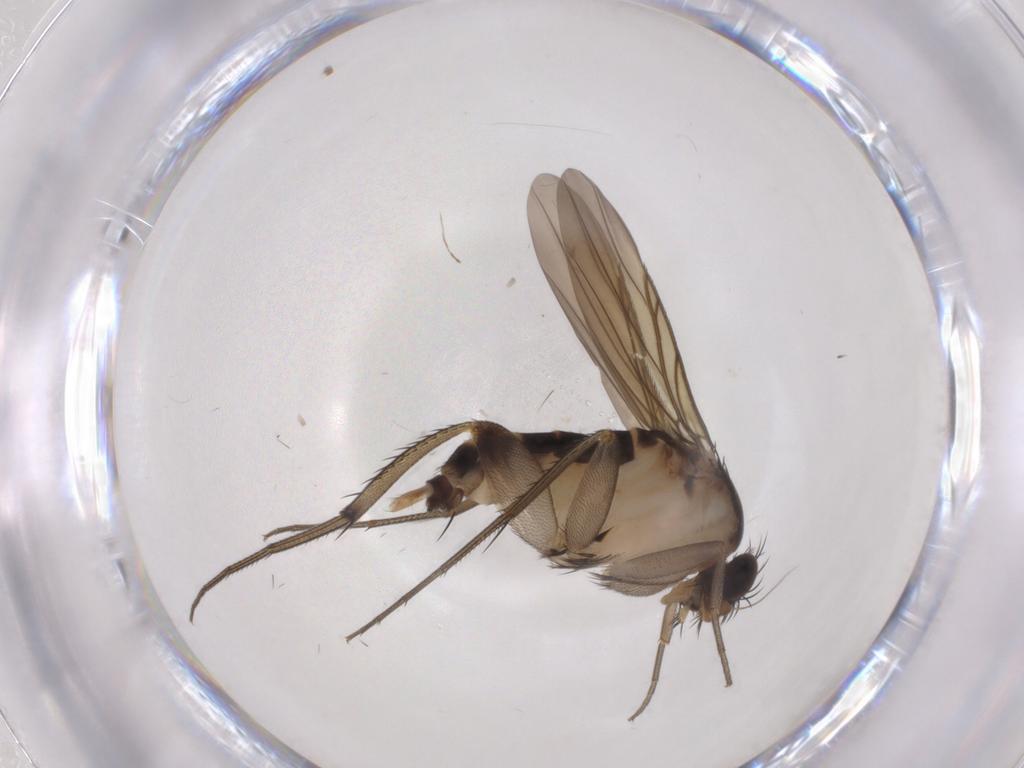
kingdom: Animalia
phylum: Arthropoda
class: Insecta
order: Diptera
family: Phoridae
